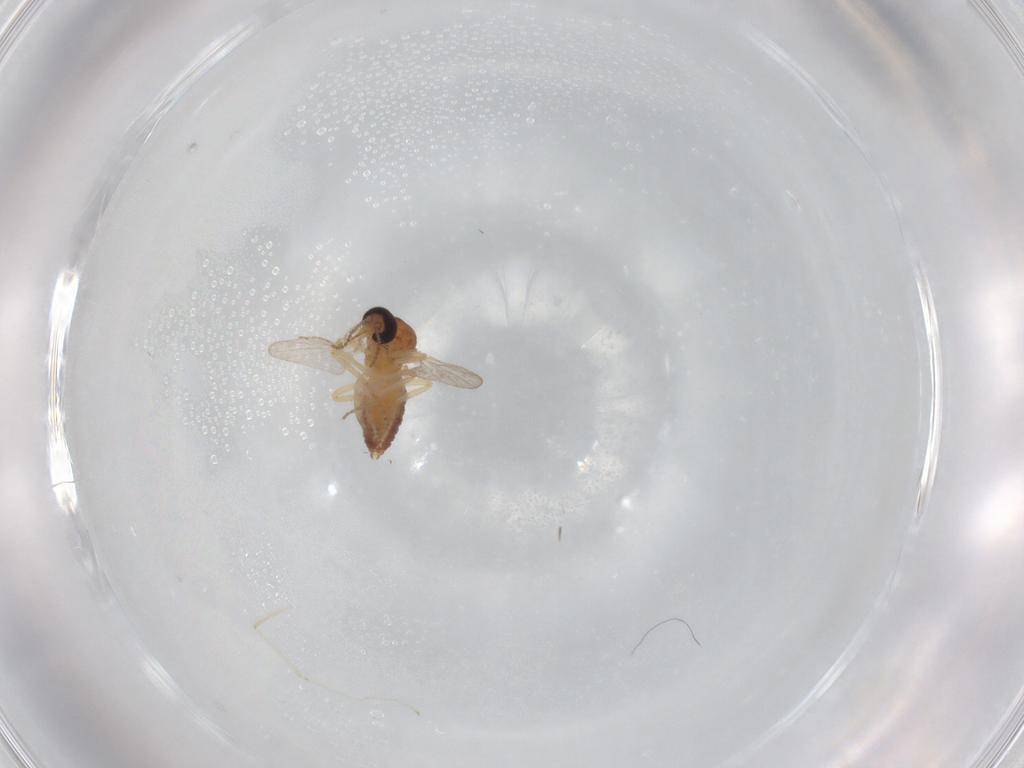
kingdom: Animalia
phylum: Arthropoda
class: Insecta
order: Diptera
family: Ceratopogonidae
